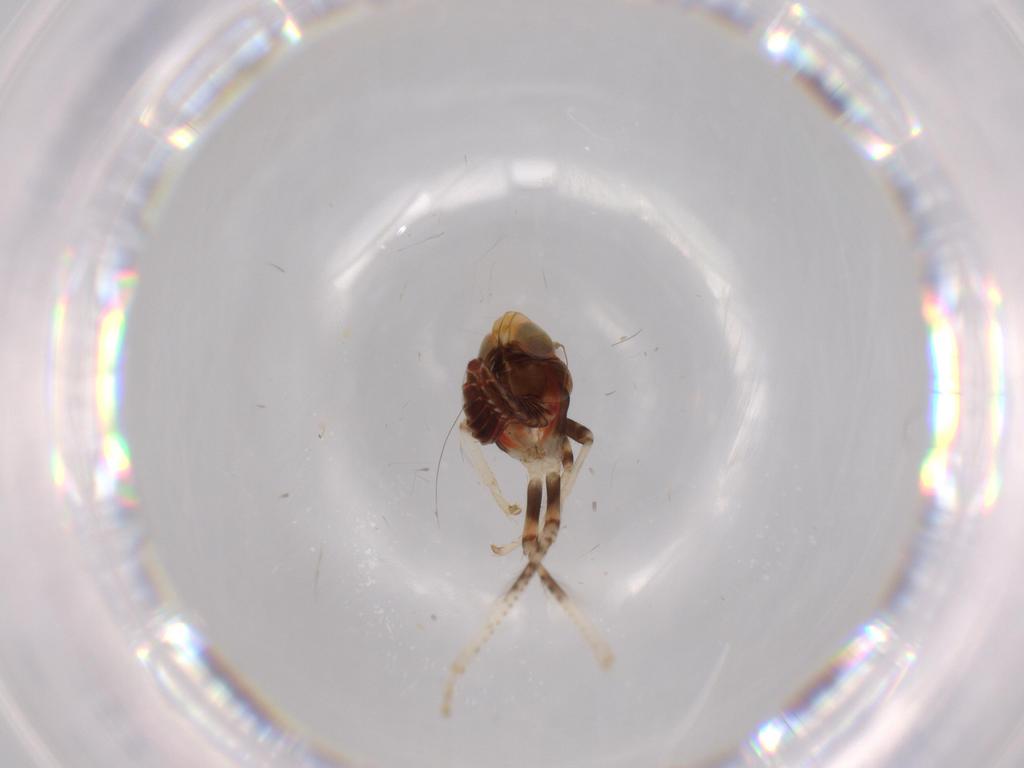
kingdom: Animalia
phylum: Arthropoda
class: Insecta
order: Hemiptera
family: Cicadellidae
